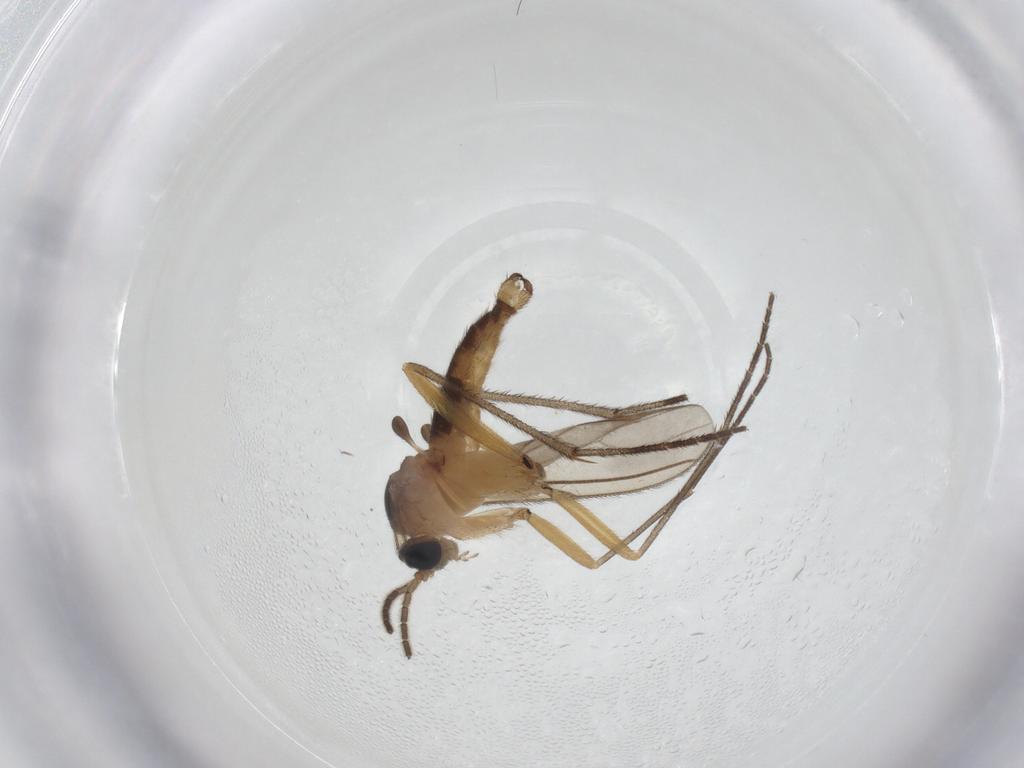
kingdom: Animalia
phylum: Arthropoda
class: Insecta
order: Diptera
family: Sciaridae
